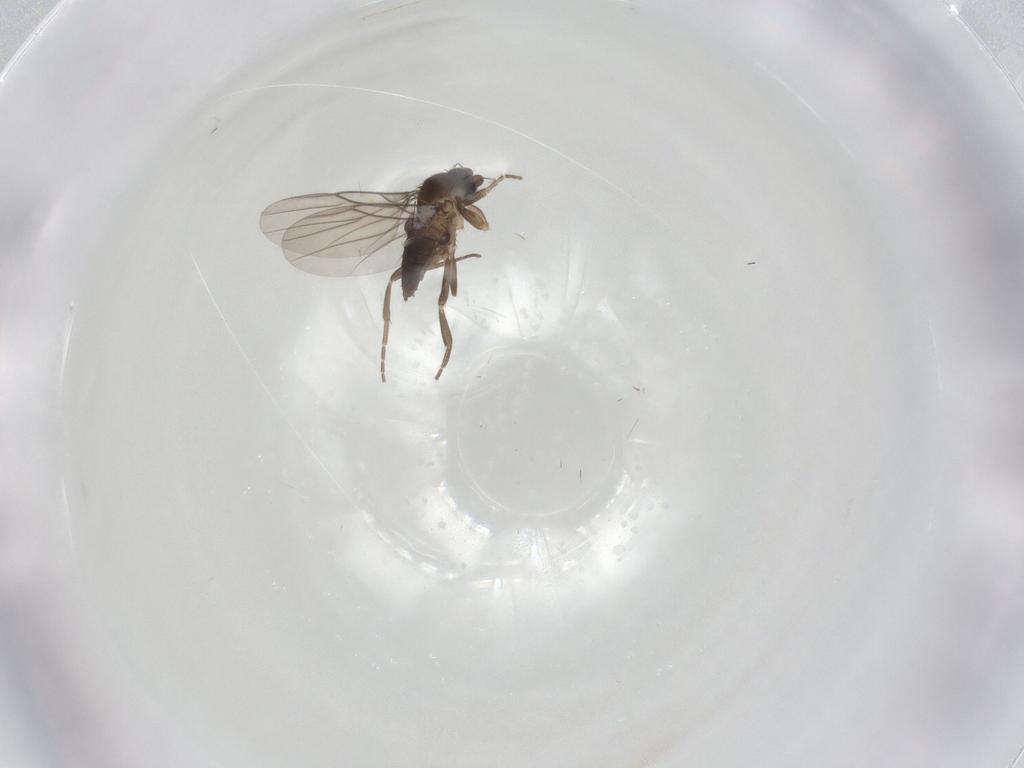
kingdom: Animalia
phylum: Arthropoda
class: Insecta
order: Diptera
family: Chironomidae
